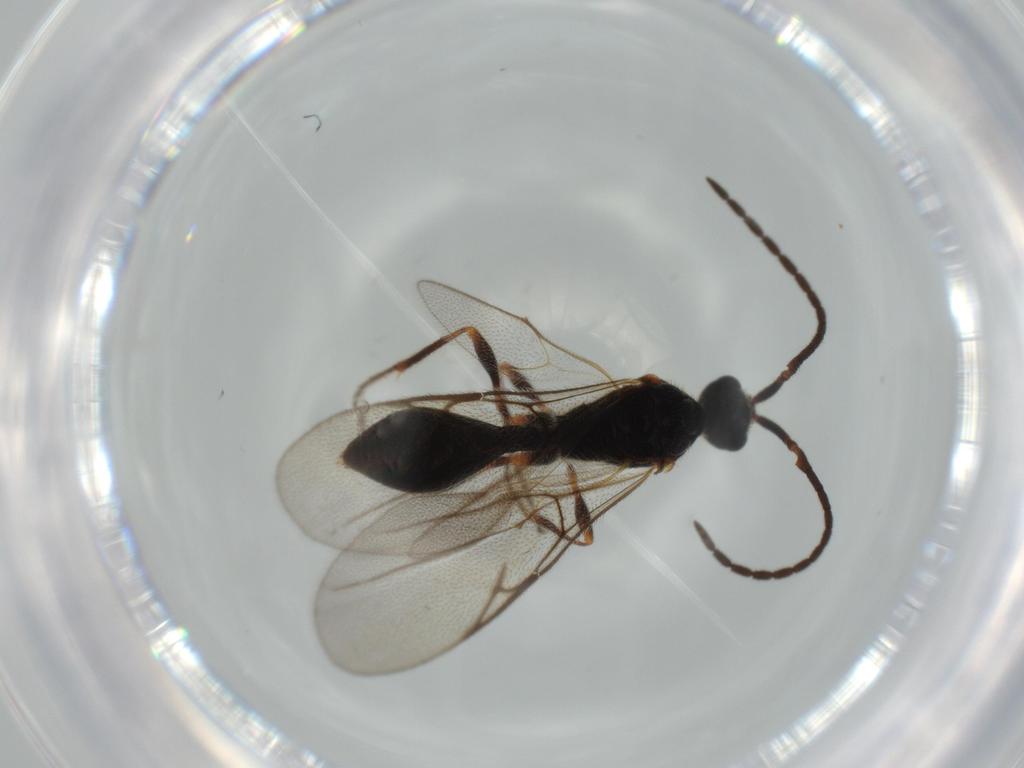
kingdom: Animalia
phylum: Arthropoda
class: Insecta
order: Hymenoptera
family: Diapriidae
